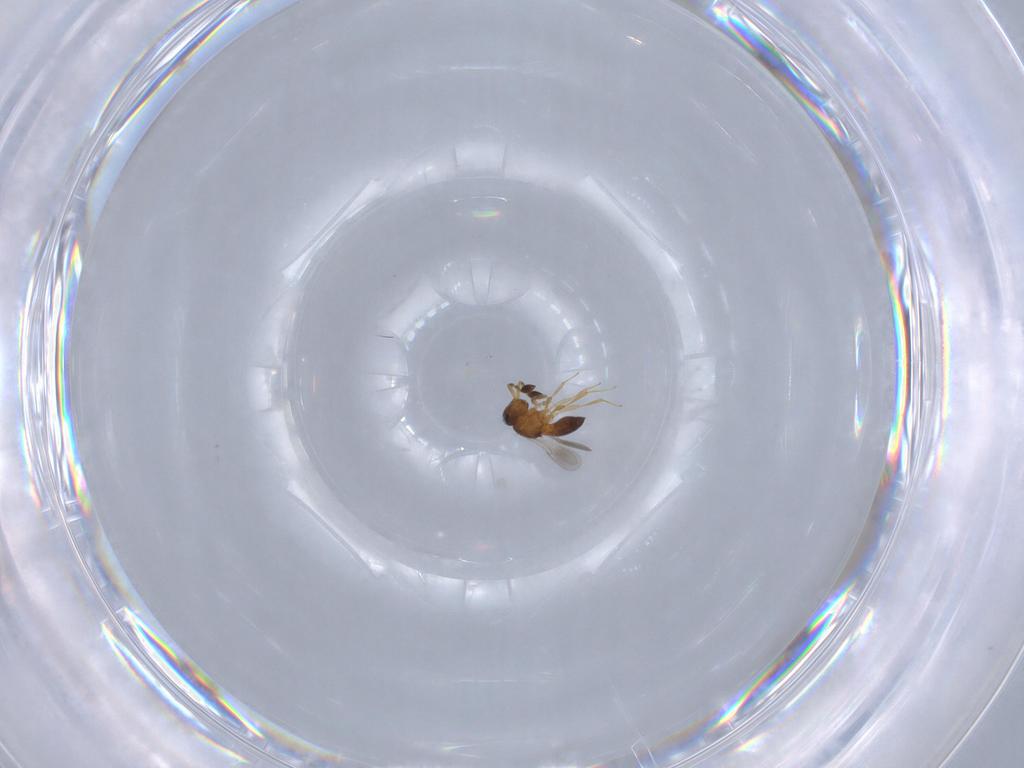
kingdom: Animalia
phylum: Arthropoda
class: Insecta
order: Hymenoptera
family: Scelionidae
